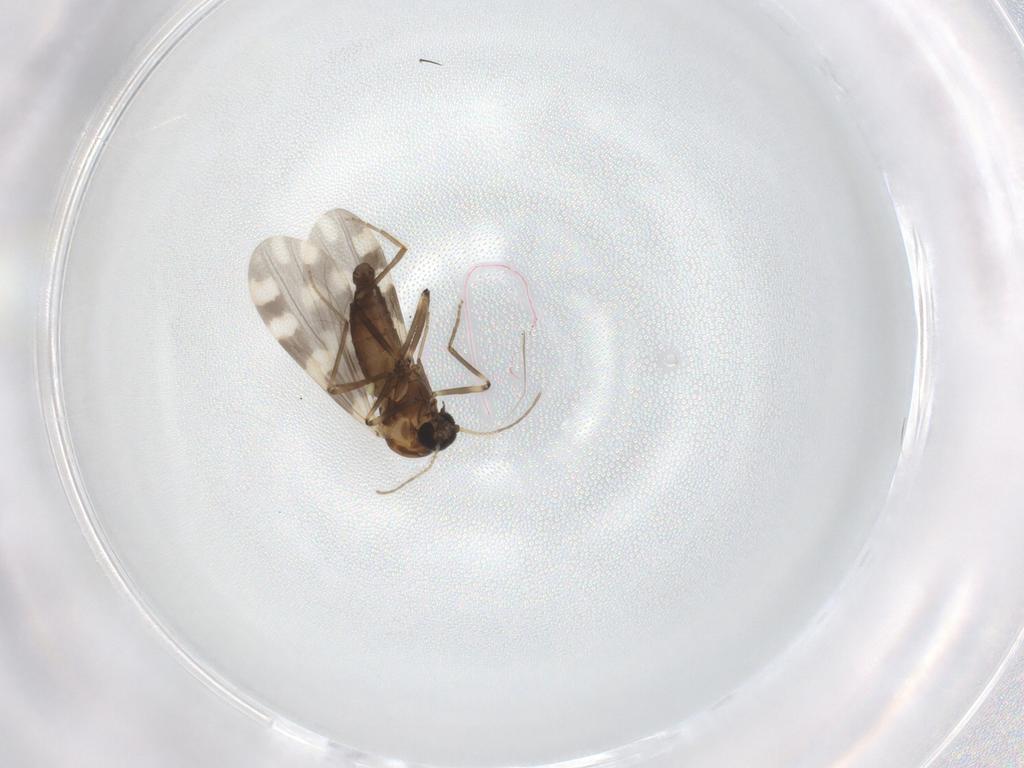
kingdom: Animalia
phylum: Arthropoda
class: Insecta
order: Diptera
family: Ceratopogonidae
